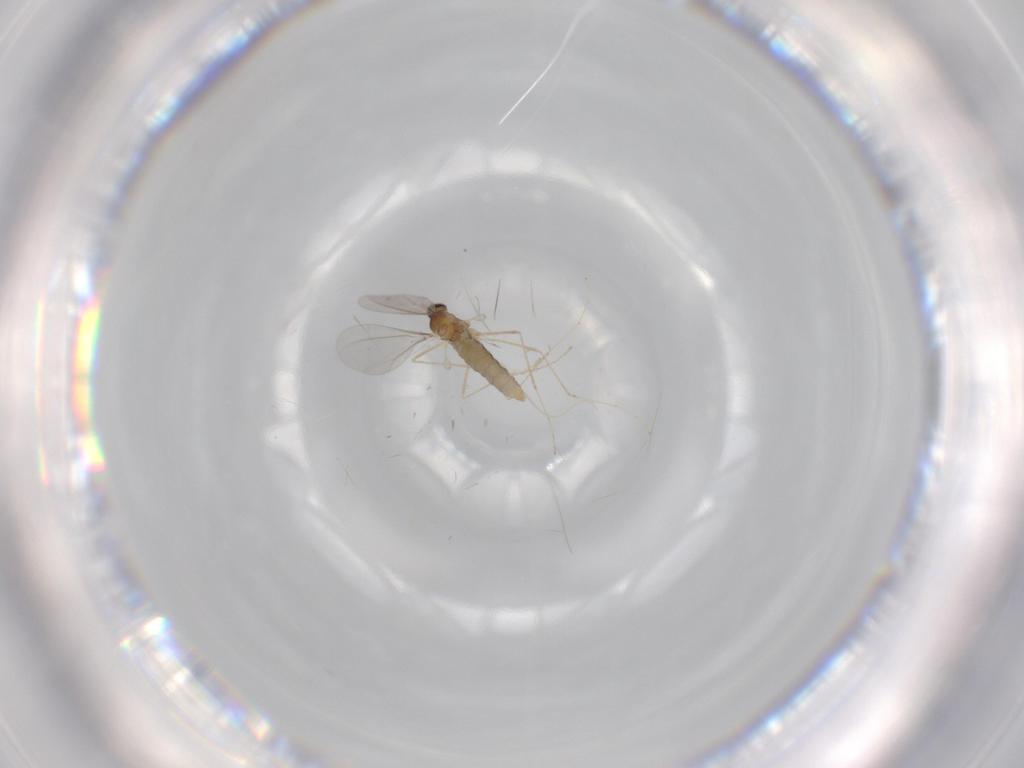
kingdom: Animalia
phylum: Arthropoda
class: Insecta
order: Diptera
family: Cecidomyiidae
